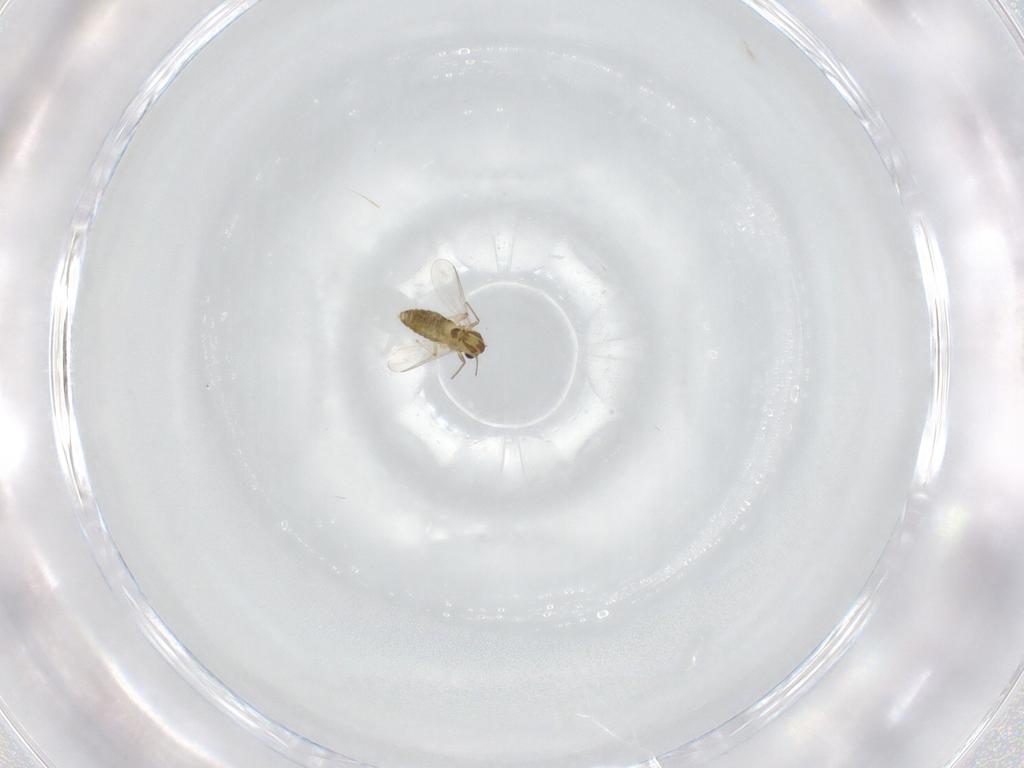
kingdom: Animalia
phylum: Arthropoda
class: Insecta
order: Diptera
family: Chironomidae
